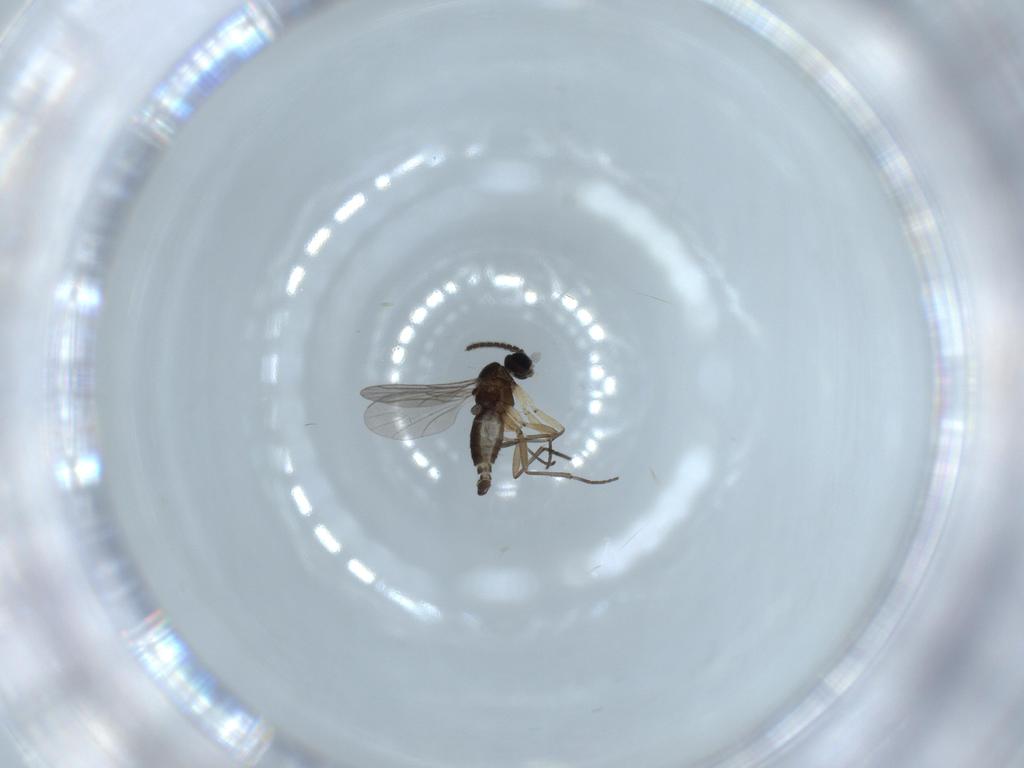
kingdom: Animalia
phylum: Arthropoda
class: Insecta
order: Diptera
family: Sciaridae
